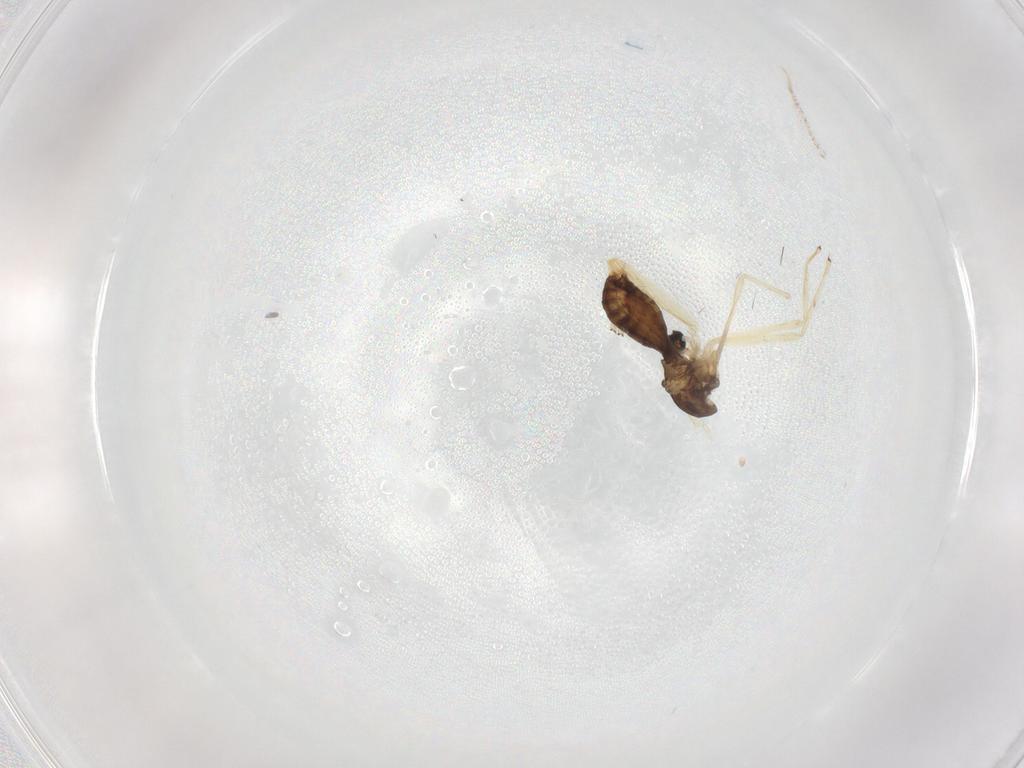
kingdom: Animalia
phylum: Arthropoda
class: Insecta
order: Diptera
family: Chironomidae
